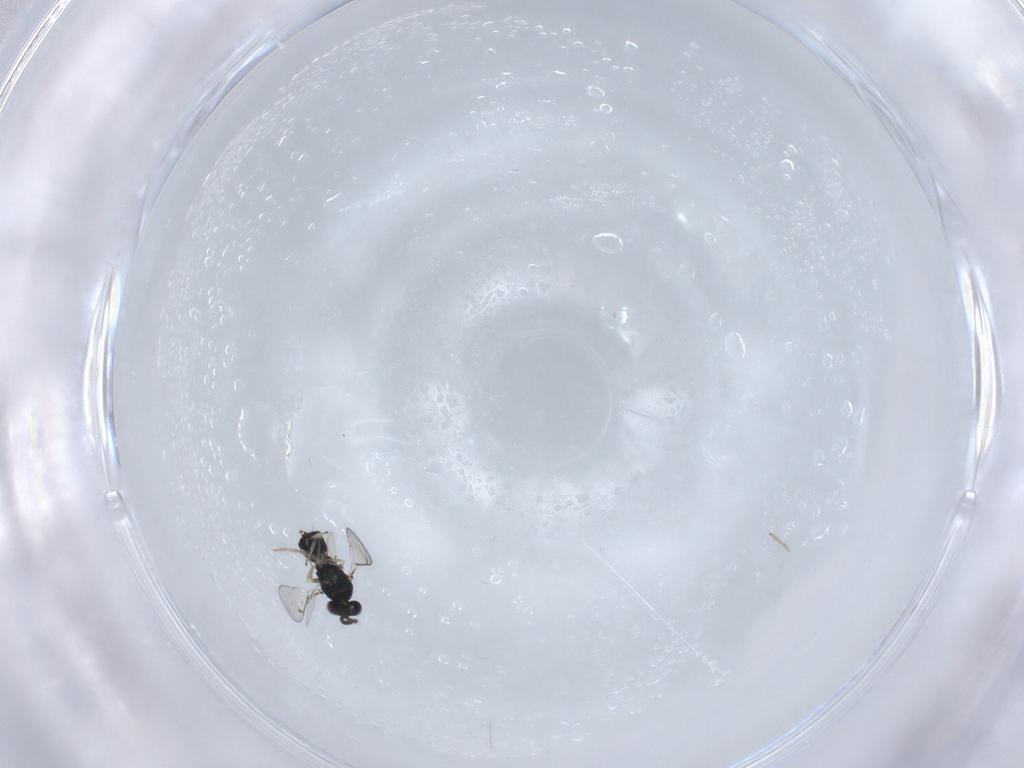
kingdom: Animalia
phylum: Arthropoda
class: Insecta
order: Hymenoptera
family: Eulophidae
